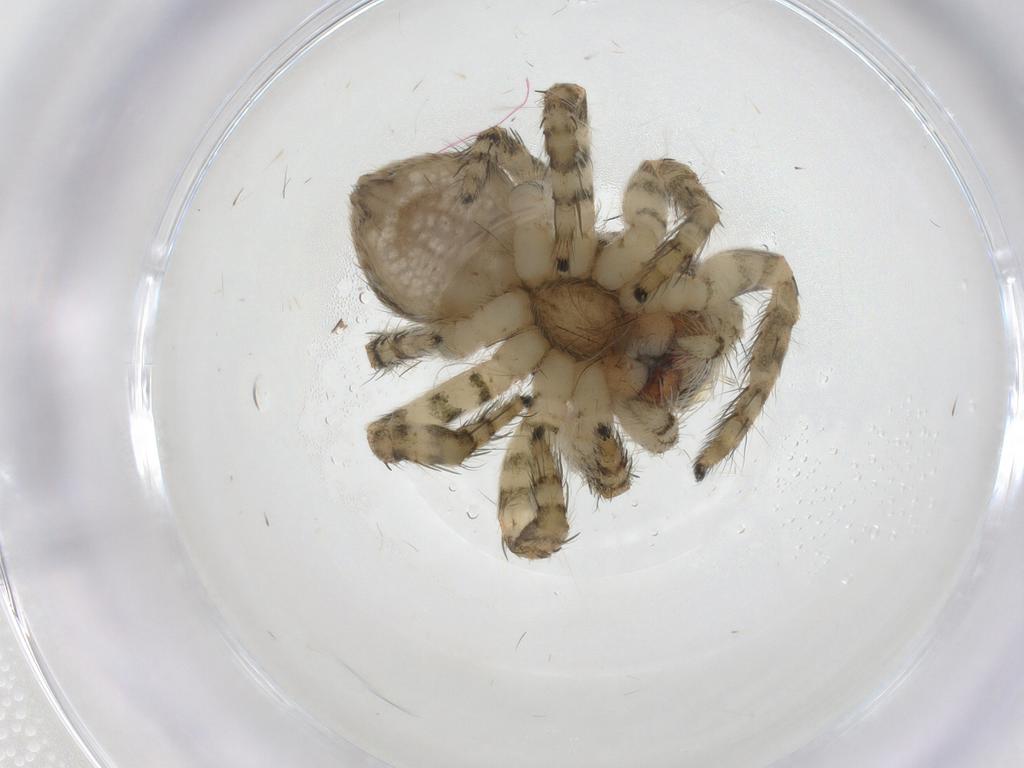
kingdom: Animalia
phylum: Arthropoda
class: Arachnida
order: Araneae
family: Salticidae
